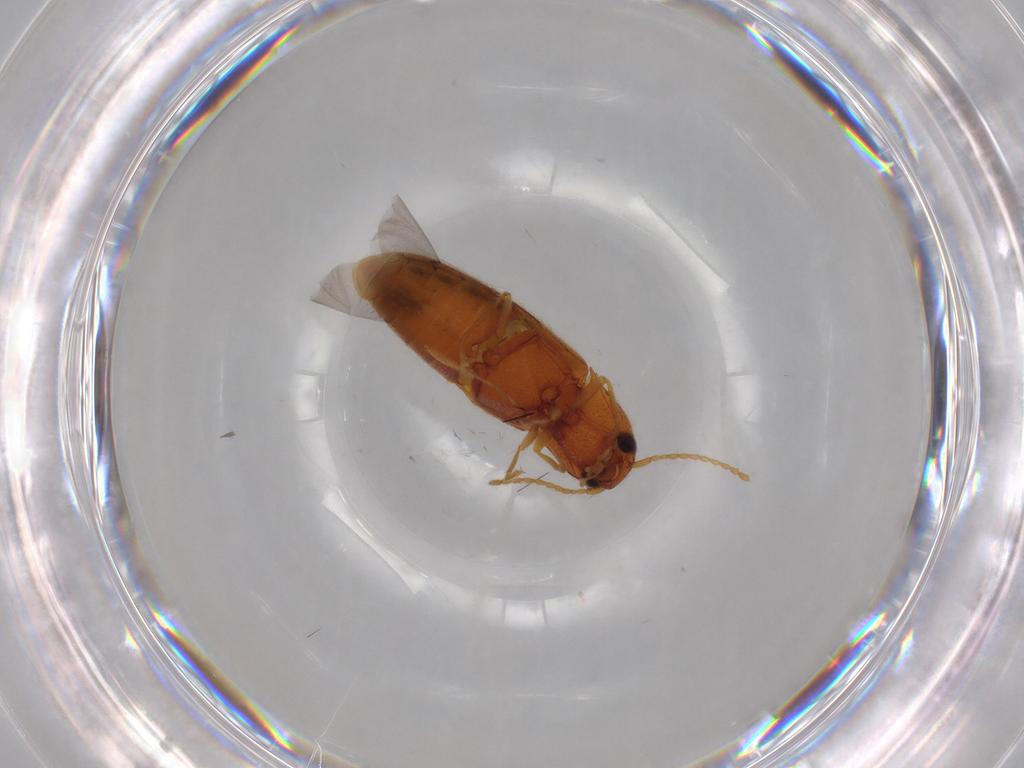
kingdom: Animalia
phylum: Arthropoda
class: Insecta
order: Coleoptera
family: Elateridae
